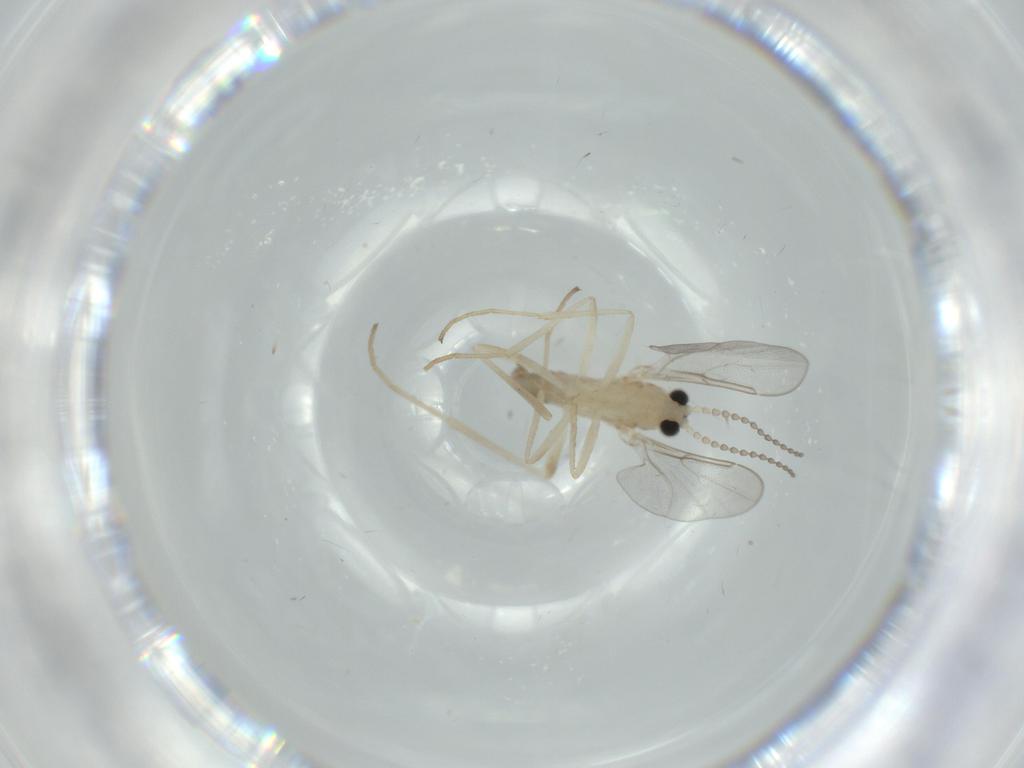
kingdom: Animalia
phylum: Arthropoda
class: Insecta
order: Diptera
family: Psychodidae
